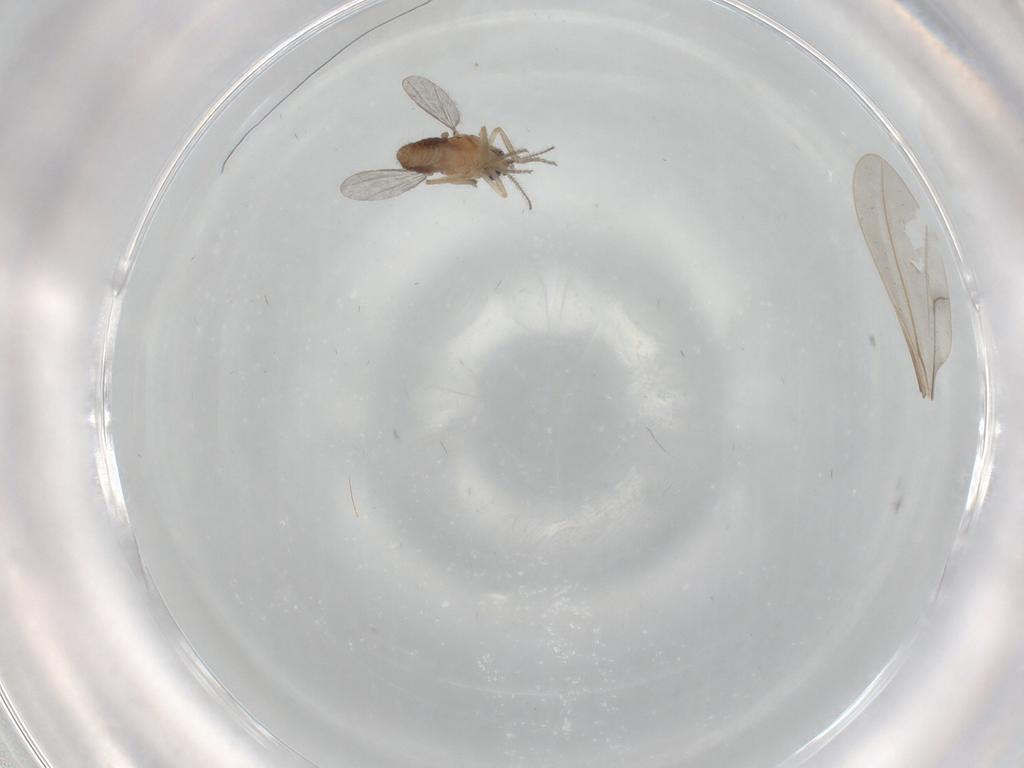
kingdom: Animalia
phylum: Arthropoda
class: Insecta
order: Diptera
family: Ceratopogonidae
